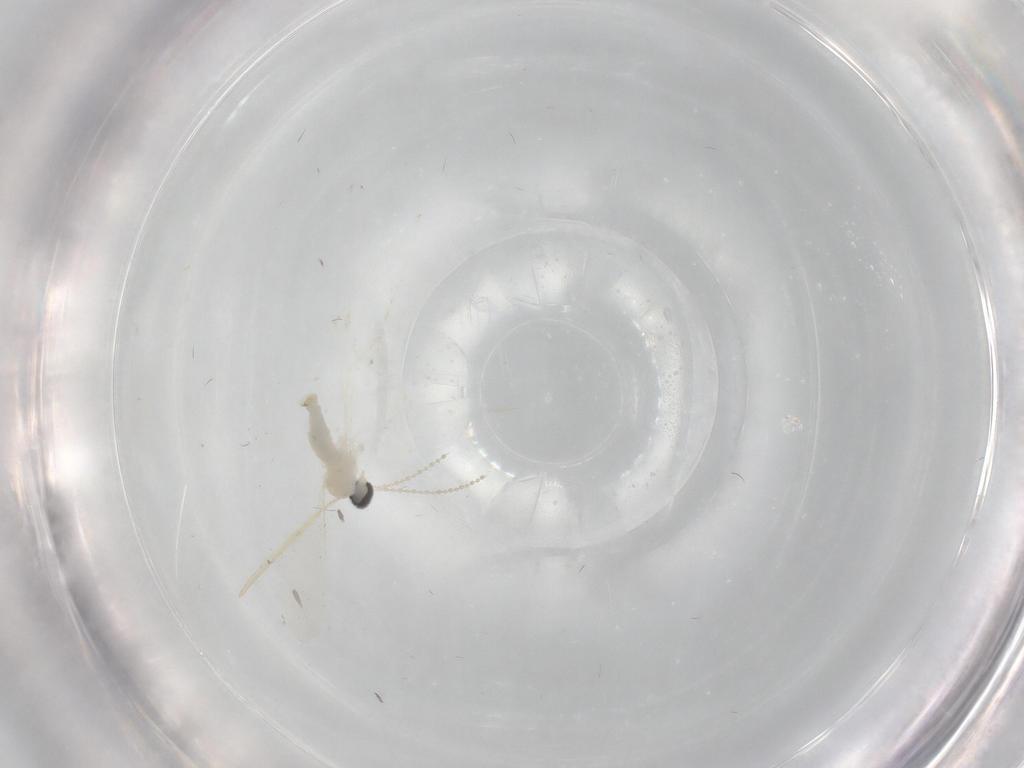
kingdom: Animalia
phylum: Arthropoda
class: Insecta
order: Diptera
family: Cecidomyiidae
